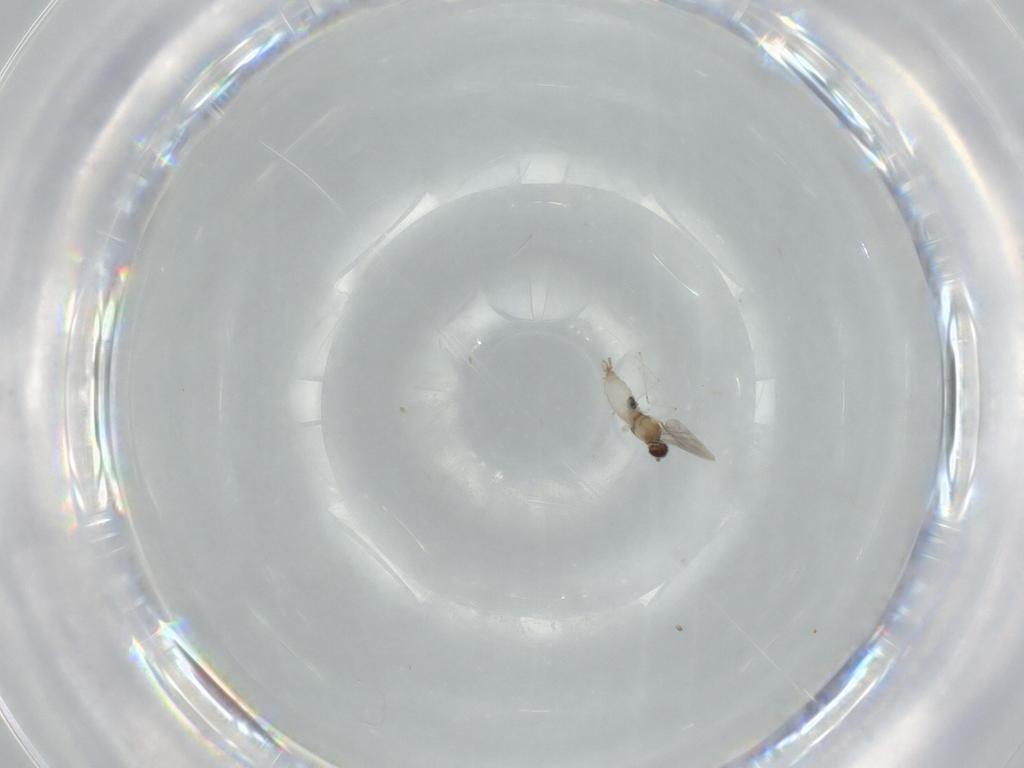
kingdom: Animalia
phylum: Arthropoda
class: Insecta
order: Diptera
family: Cecidomyiidae
